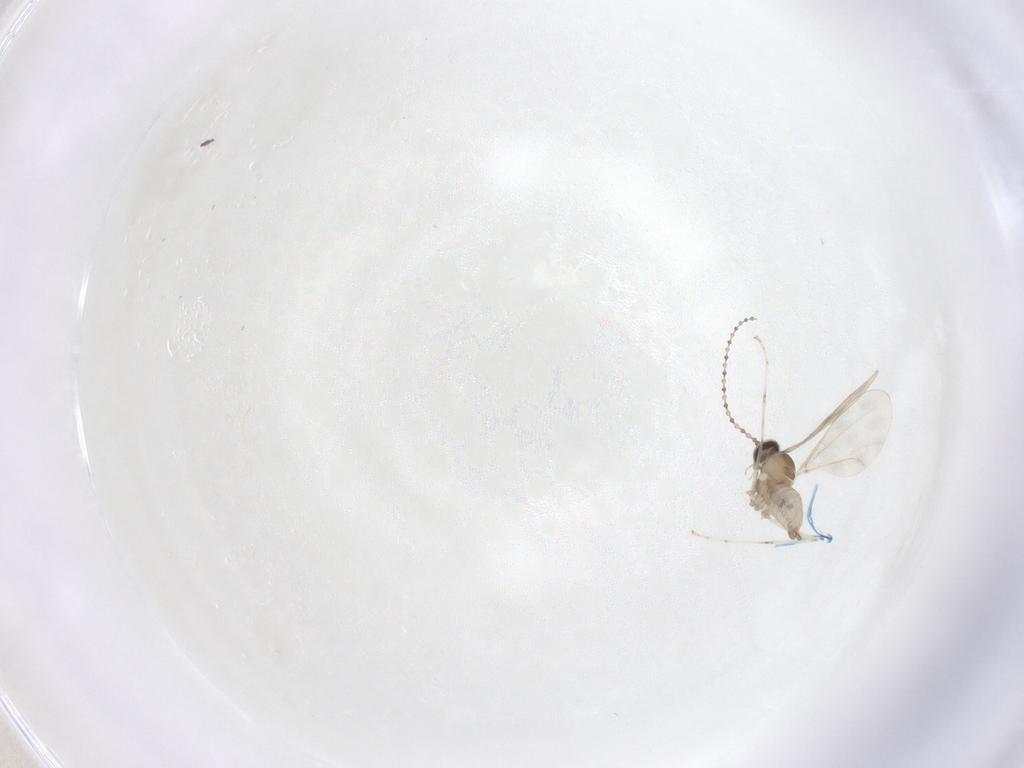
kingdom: Animalia
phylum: Arthropoda
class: Insecta
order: Diptera
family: Cecidomyiidae
